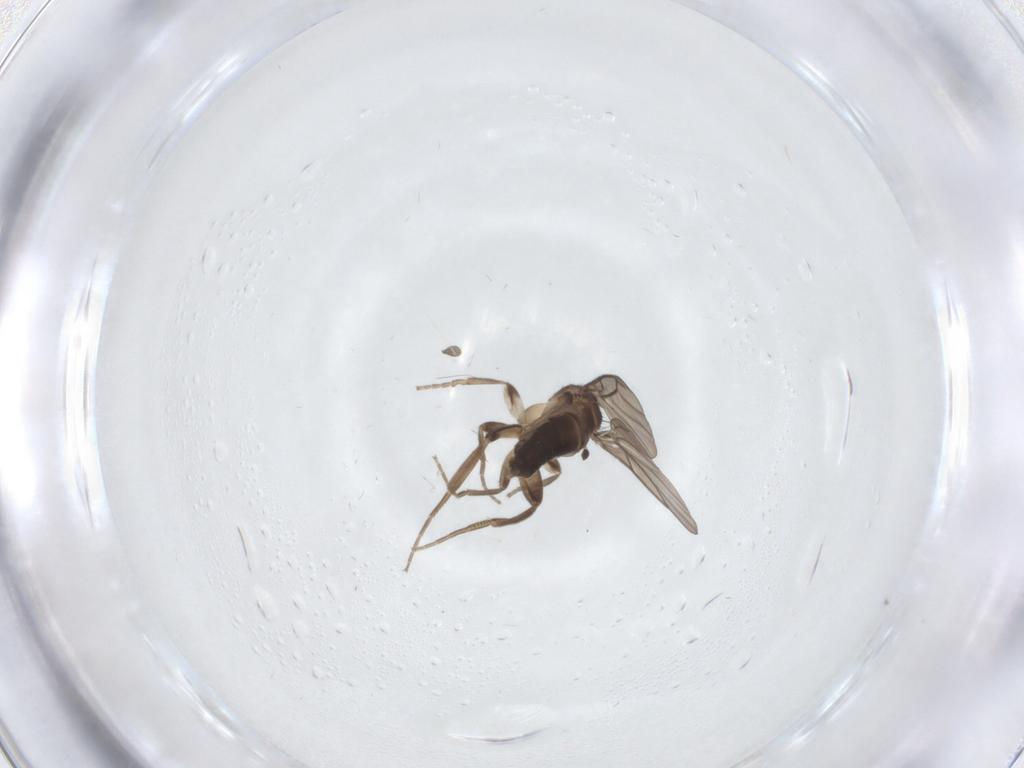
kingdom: Animalia
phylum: Arthropoda
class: Insecta
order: Diptera
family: Sciaridae
